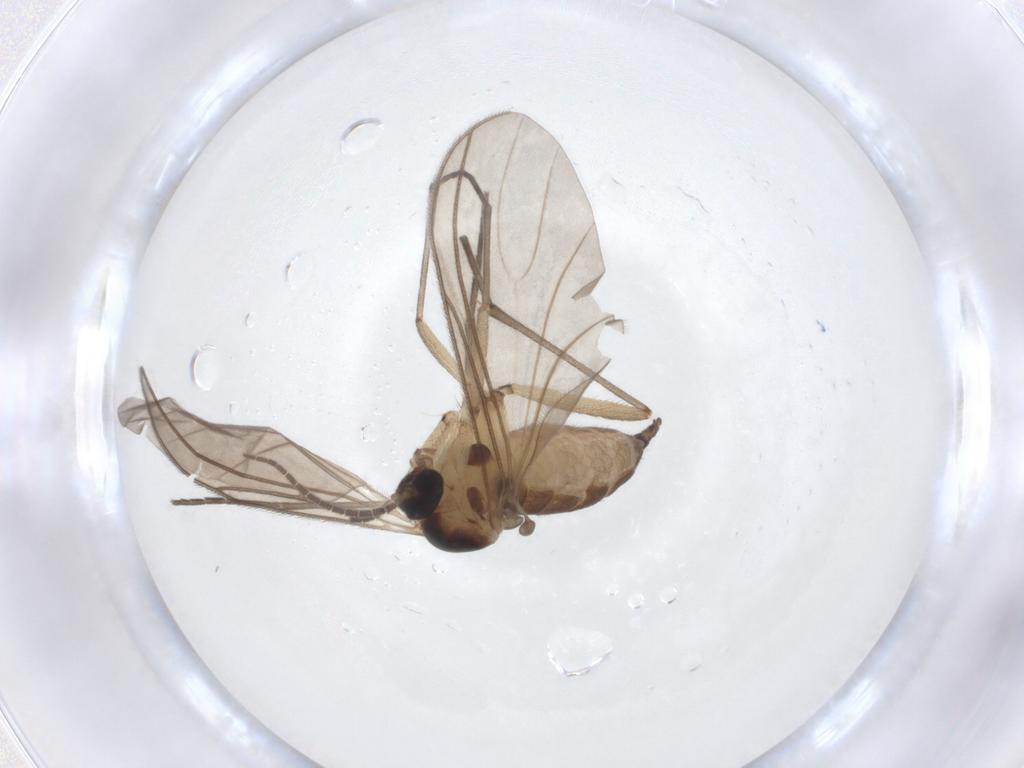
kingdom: Animalia
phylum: Arthropoda
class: Insecta
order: Diptera
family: Sciaridae
